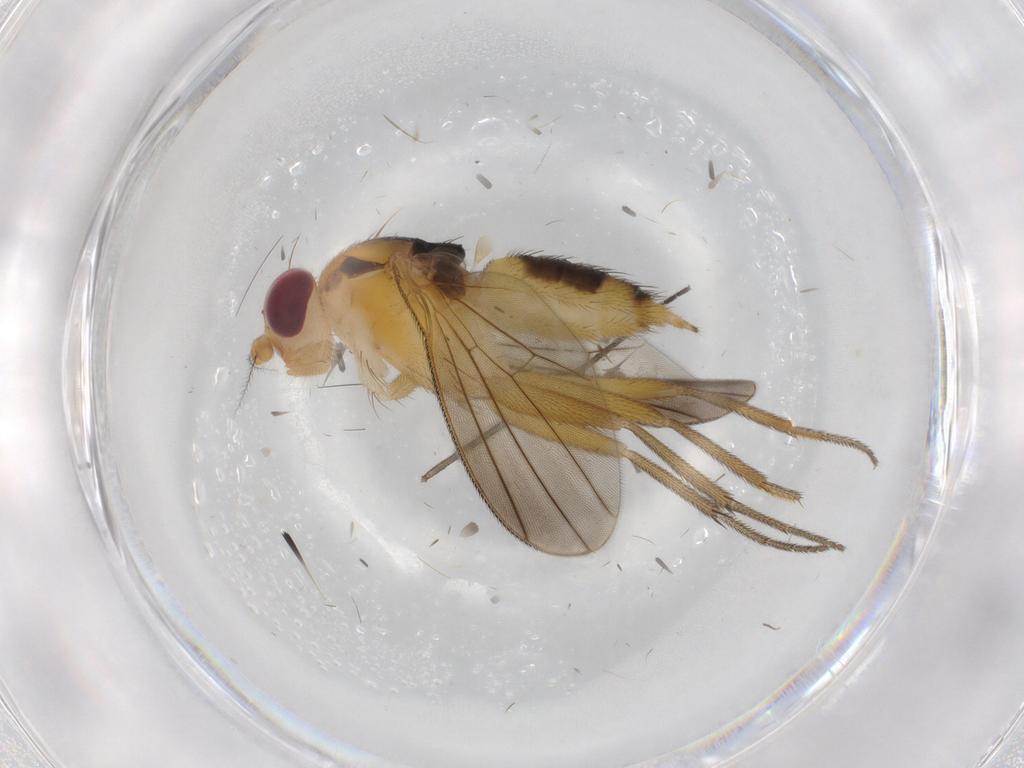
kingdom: Animalia
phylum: Arthropoda
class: Insecta
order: Diptera
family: Clusiidae
